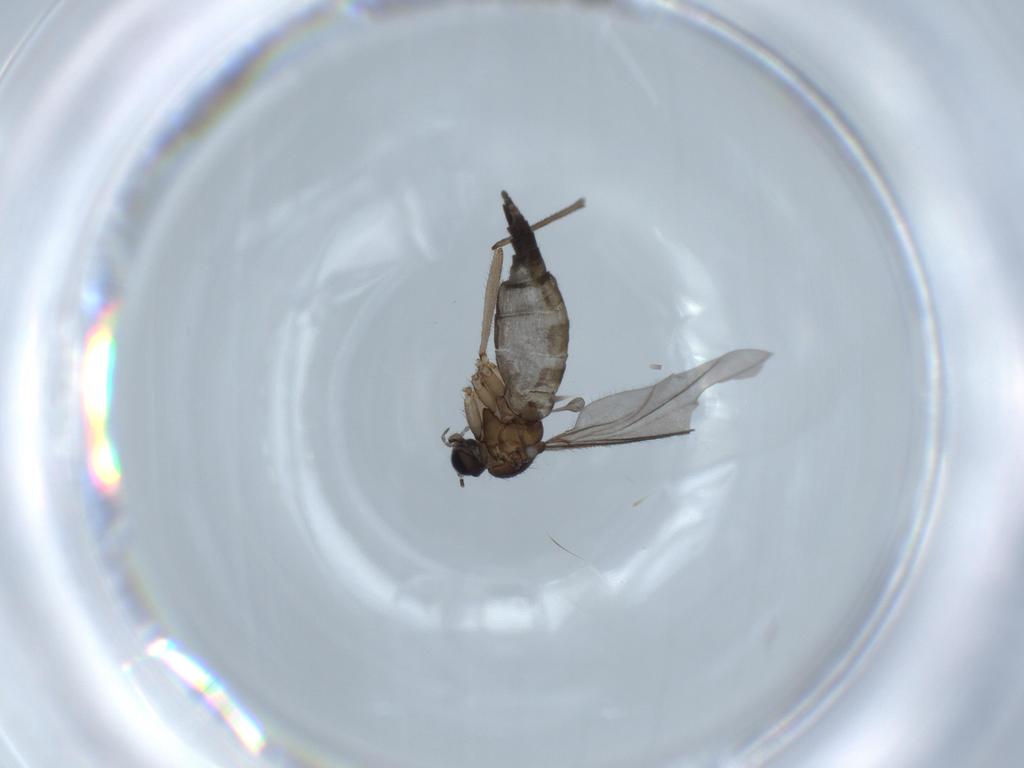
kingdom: Animalia
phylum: Arthropoda
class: Insecta
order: Diptera
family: Sciaridae
